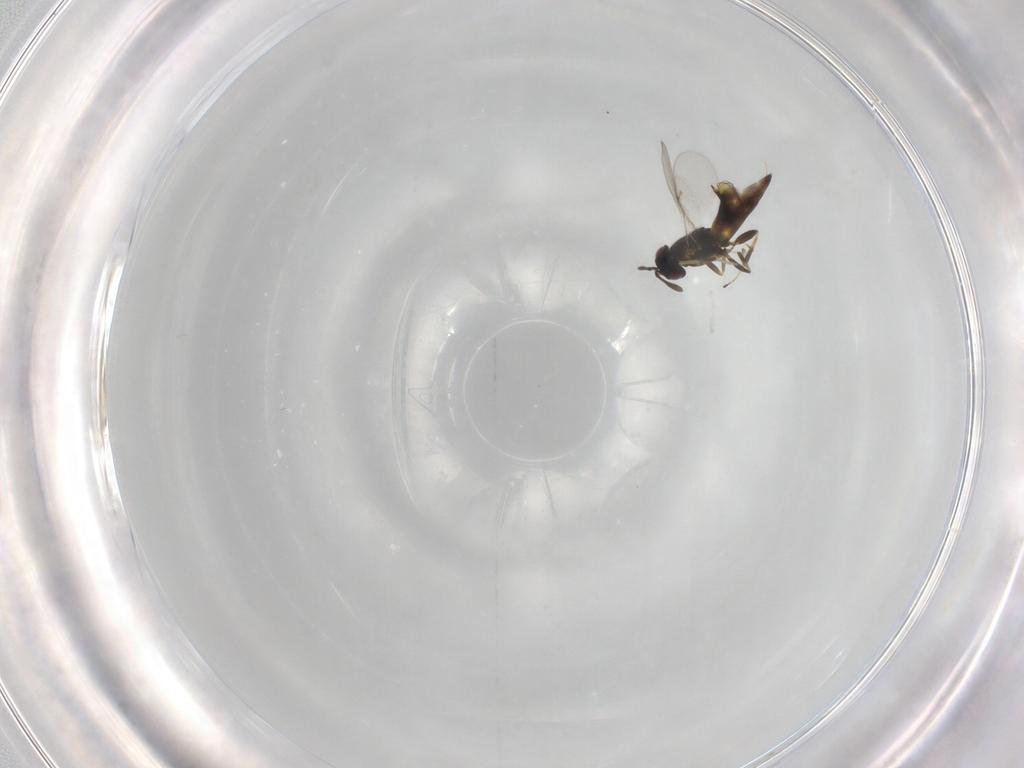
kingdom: Animalia
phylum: Arthropoda
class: Insecta
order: Hymenoptera
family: Encyrtidae
